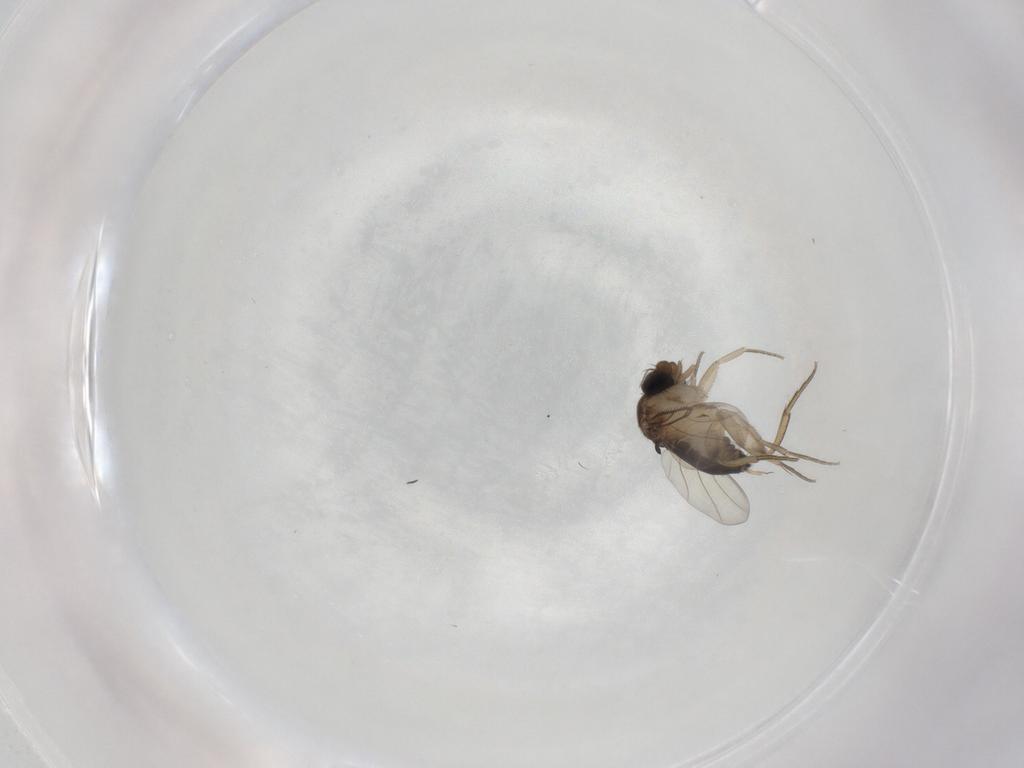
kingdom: Animalia
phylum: Arthropoda
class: Insecta
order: Diptera
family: Phoridae
